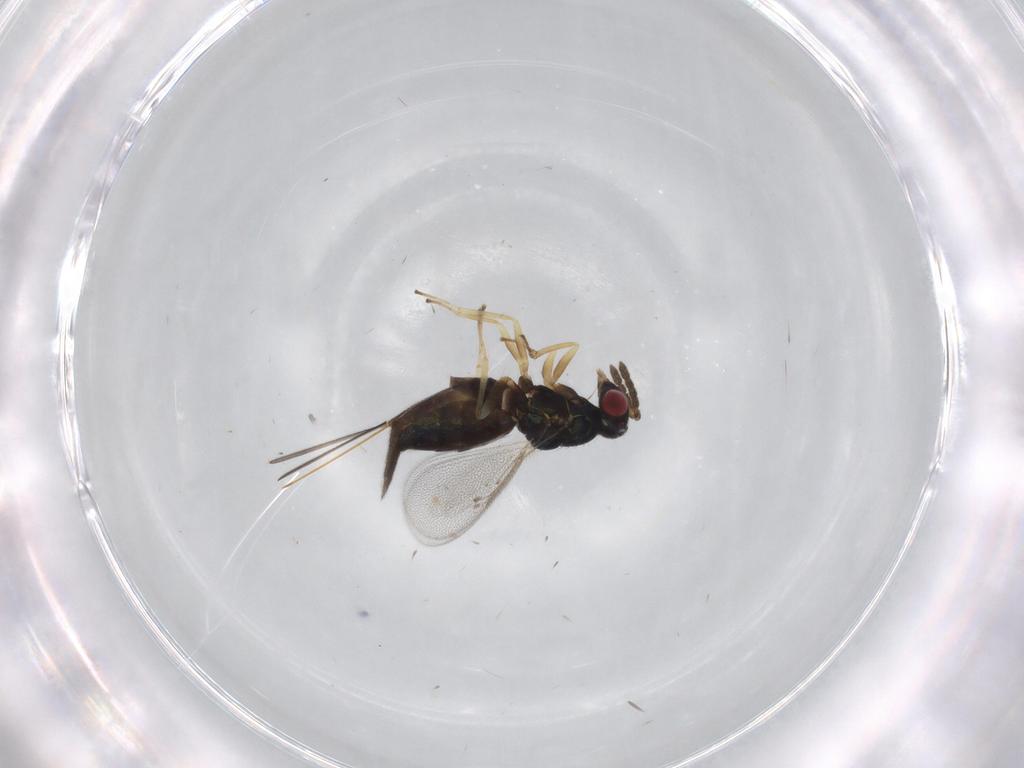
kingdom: Animalia
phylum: Arthropoda
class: Insecta
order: Hymenoptera
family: Eulophidae
